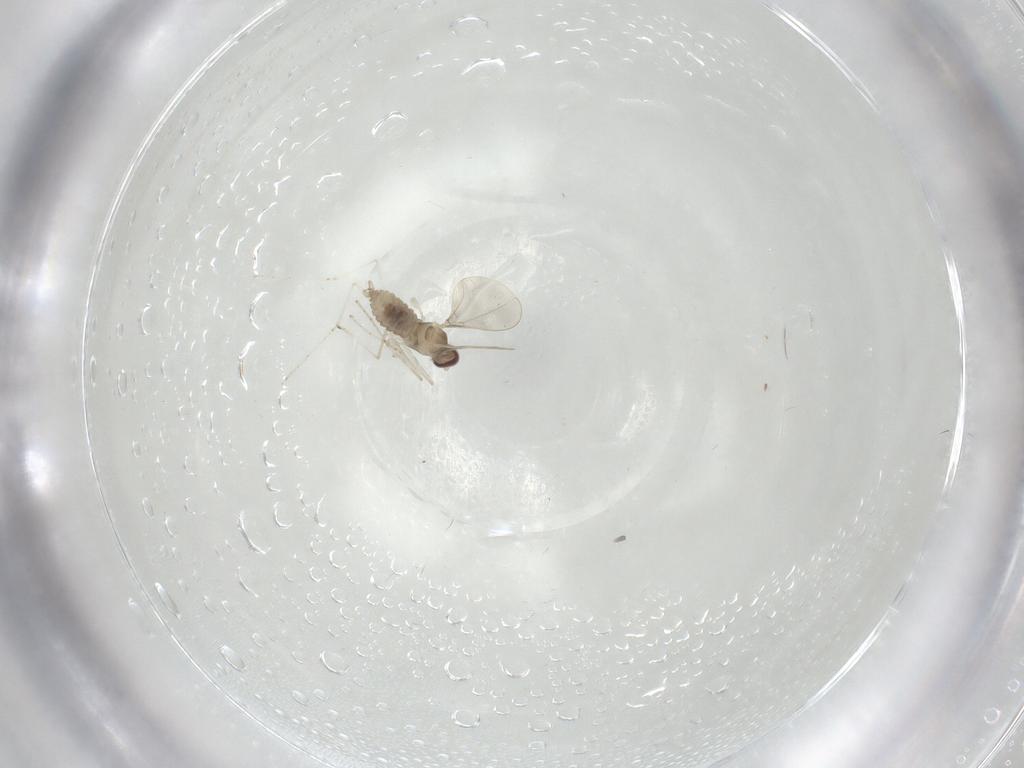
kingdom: Animalia
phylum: Arthropoda
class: Insecta
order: Diptera
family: Cecidomyiidae
